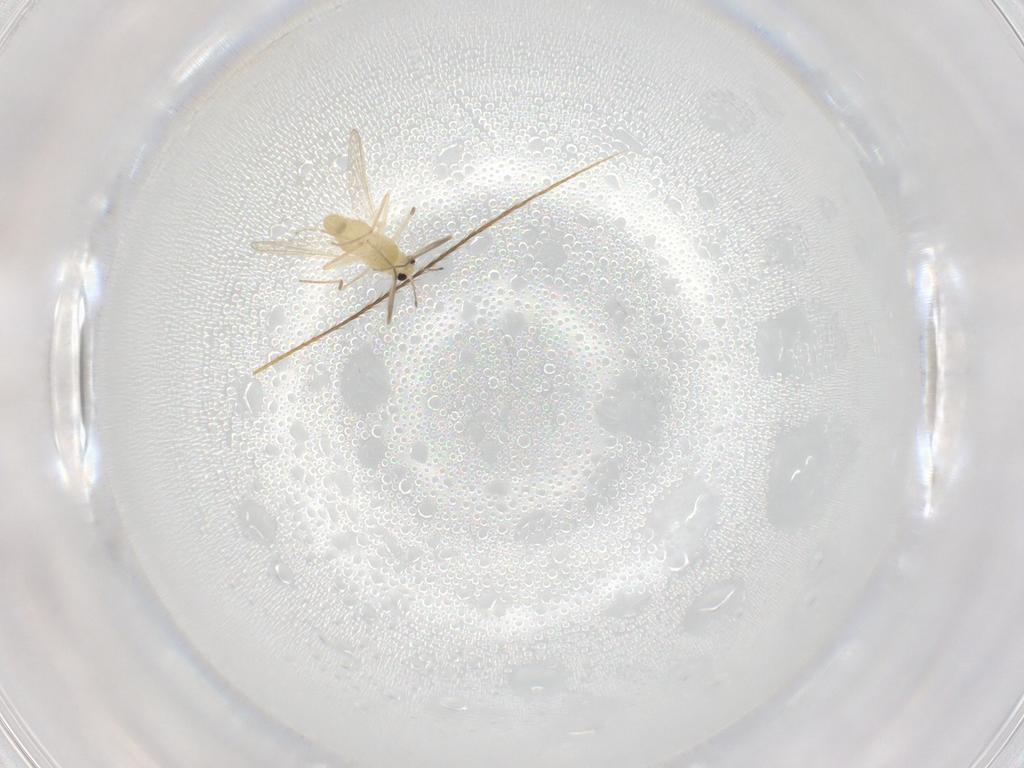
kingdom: Animalia
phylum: Arthropoda
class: Insecta
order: Diptera
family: Chironomidae
